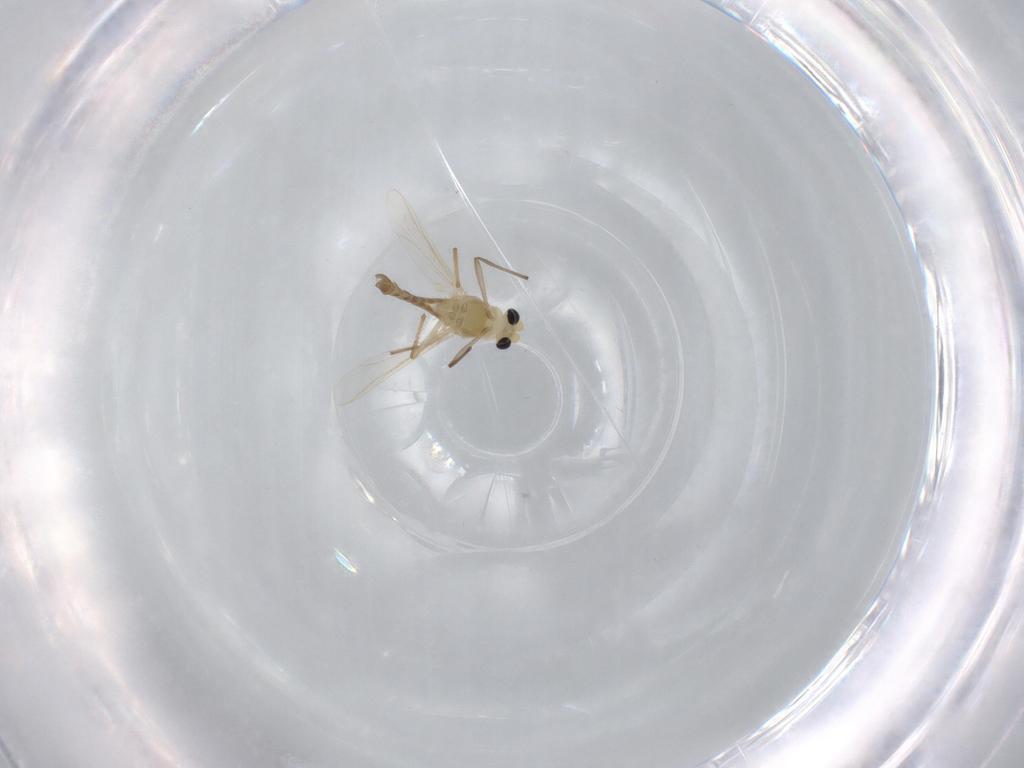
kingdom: Animalia
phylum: Arthropoda
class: Insecta
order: Diptera
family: Chironomidae
